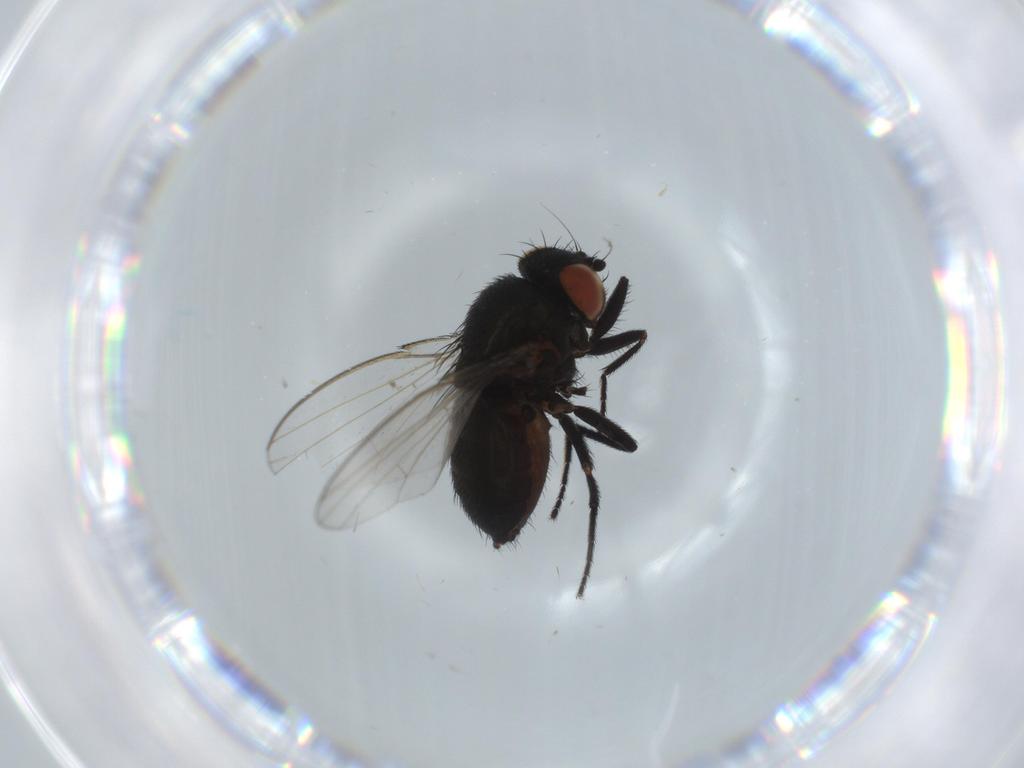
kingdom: Animalia
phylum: Arthropoda
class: Insecta
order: Diptera
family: Milichiidae
